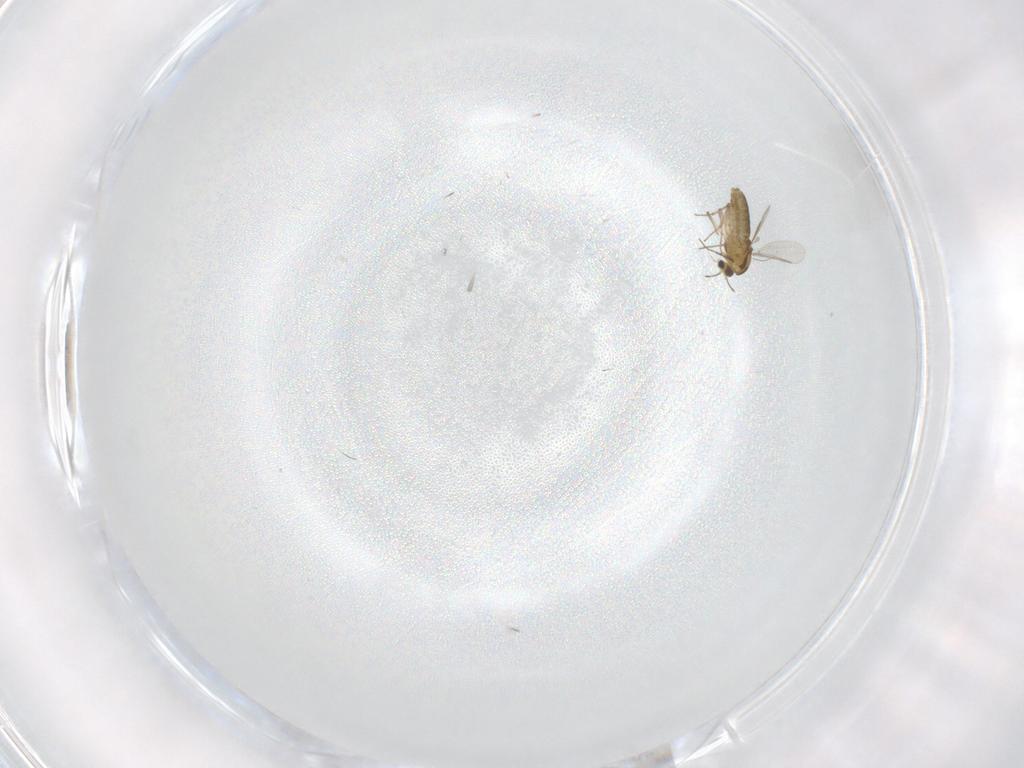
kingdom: Animalia
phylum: Arthropoda
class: Insecta
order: Diptera
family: Chironomidae
